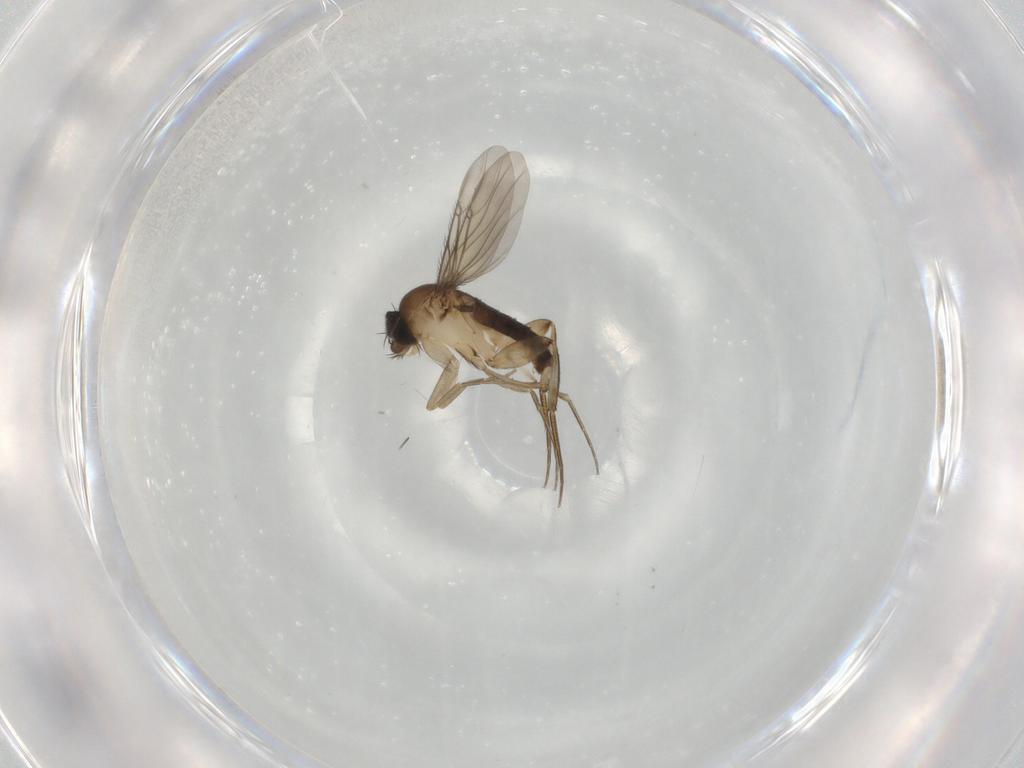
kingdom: Animalia
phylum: Arthropoda
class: Insecta
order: Diptera
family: Phoridae
